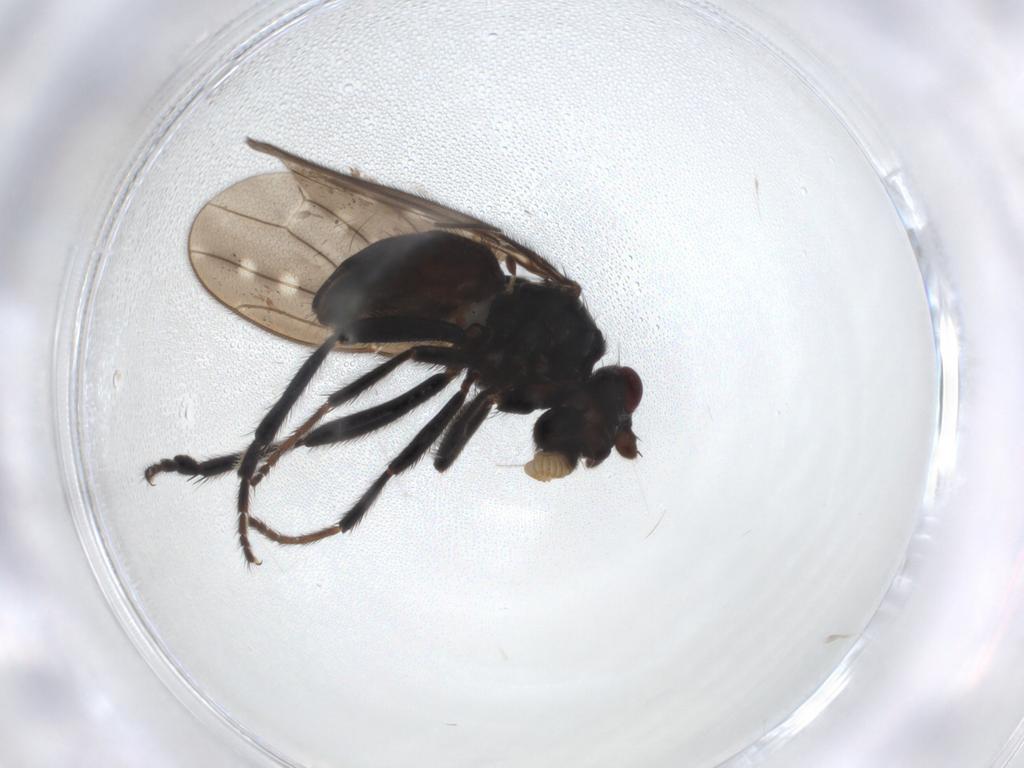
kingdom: Animalia
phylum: Arthropoda
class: Insecta
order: Diptera
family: Sphaeroceridae
